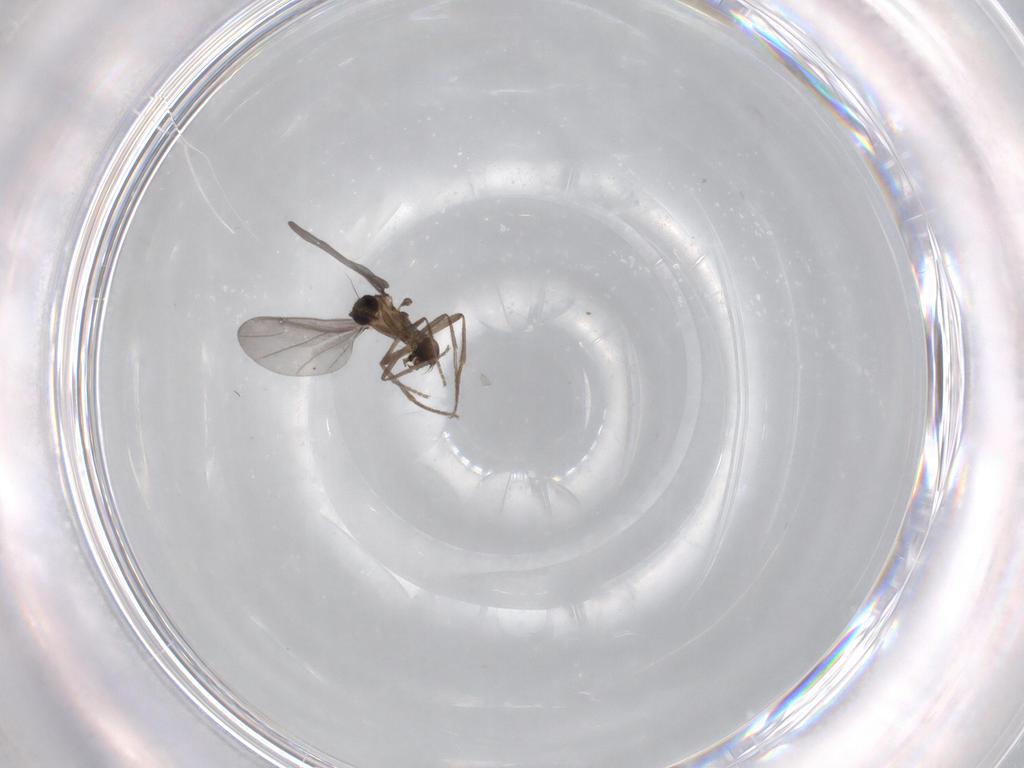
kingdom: Animalia
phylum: Arthropoda
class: Insecta
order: Diptera
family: Phoridae
